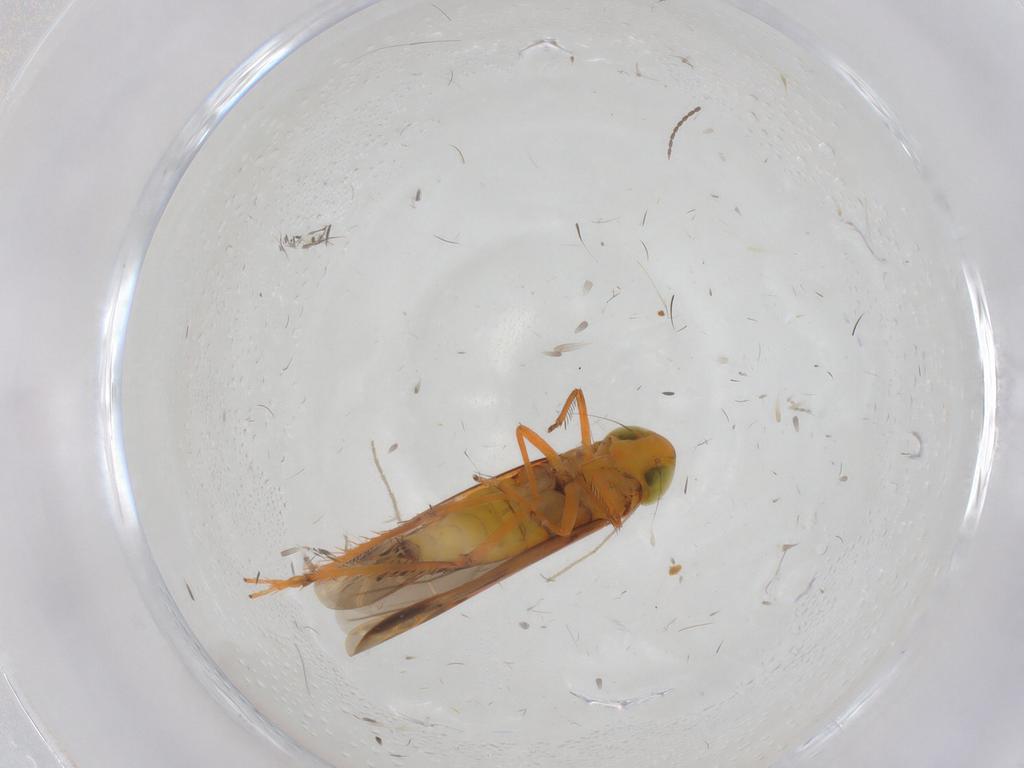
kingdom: Animalia
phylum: Arthropoda
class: Insecta
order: Hemiptera
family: Cicadellidae
